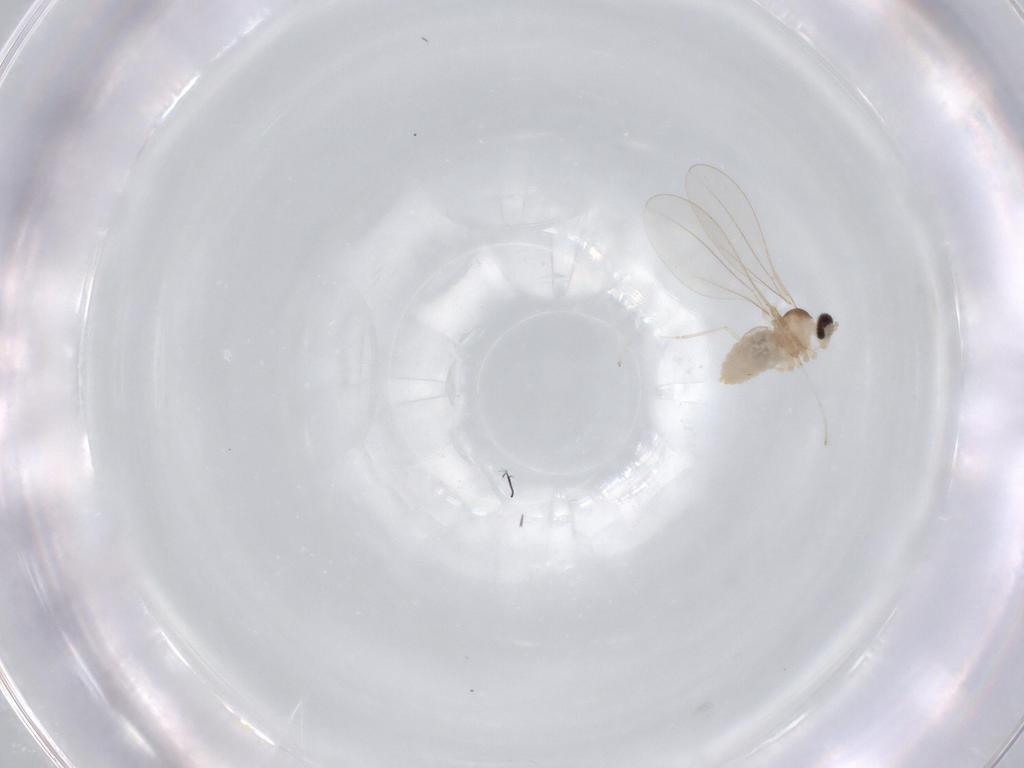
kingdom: Animalia
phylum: Arthropoda
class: Insecta
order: Diptera
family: Cecidomyiidae
